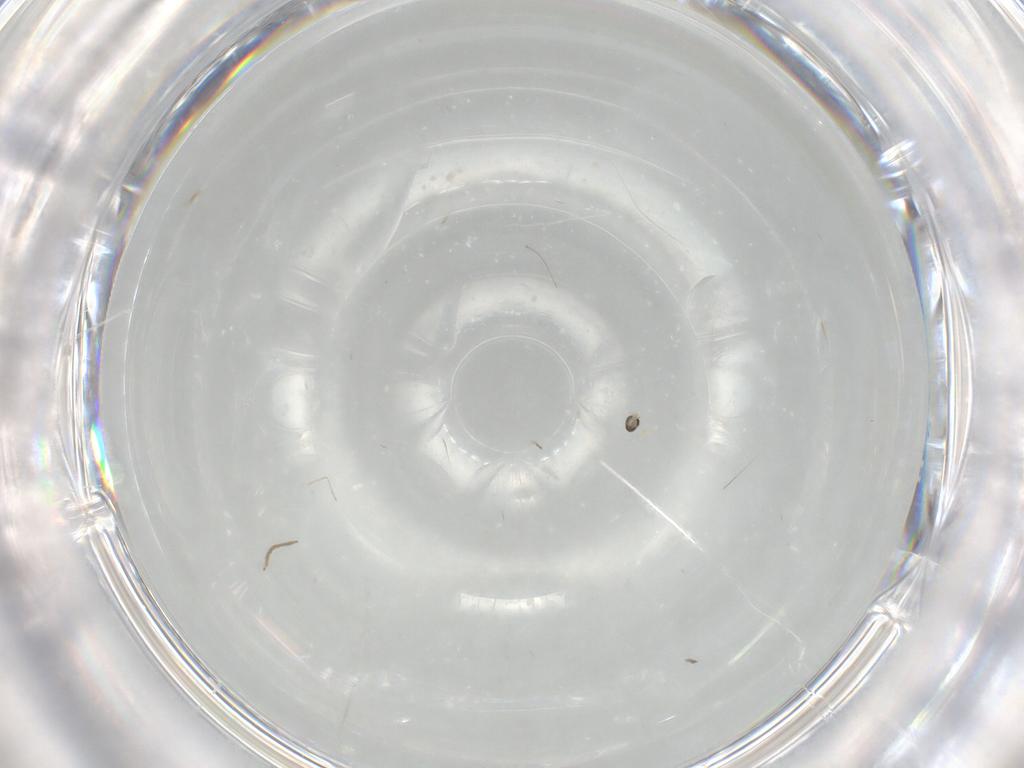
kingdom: Animalia
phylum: Arthropoda
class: Insecta
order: Diptera
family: Cecidomyiidae
